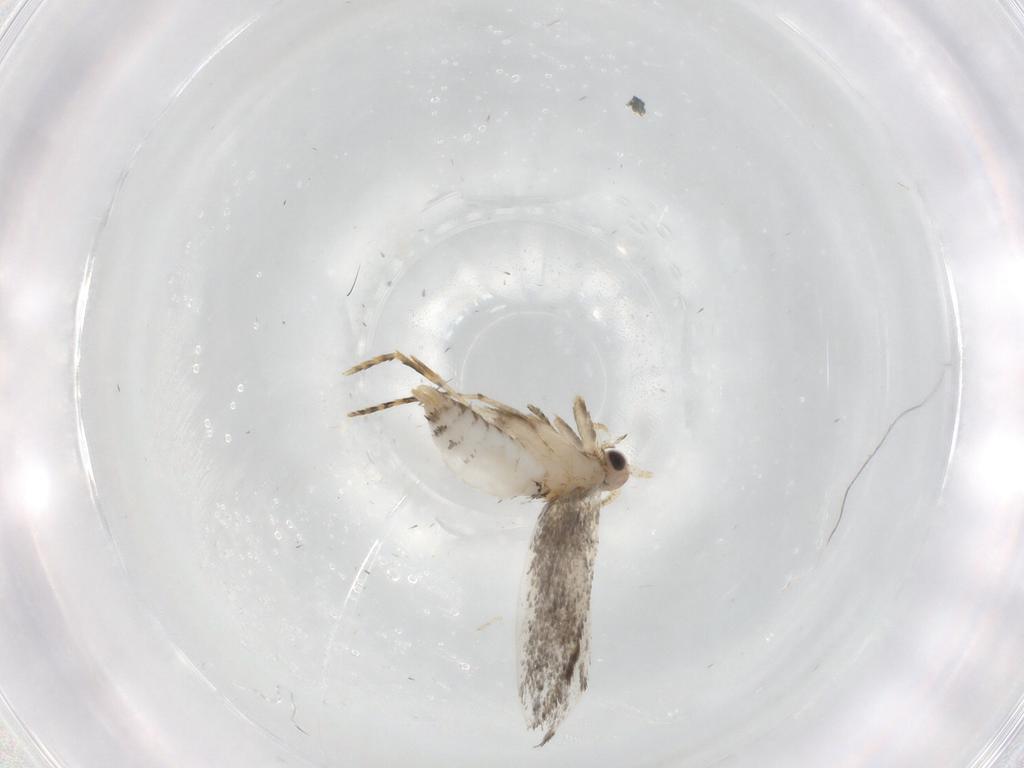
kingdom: Animalia
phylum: Arthropoda
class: Insecta
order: Lepidoptera
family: Tineidae
